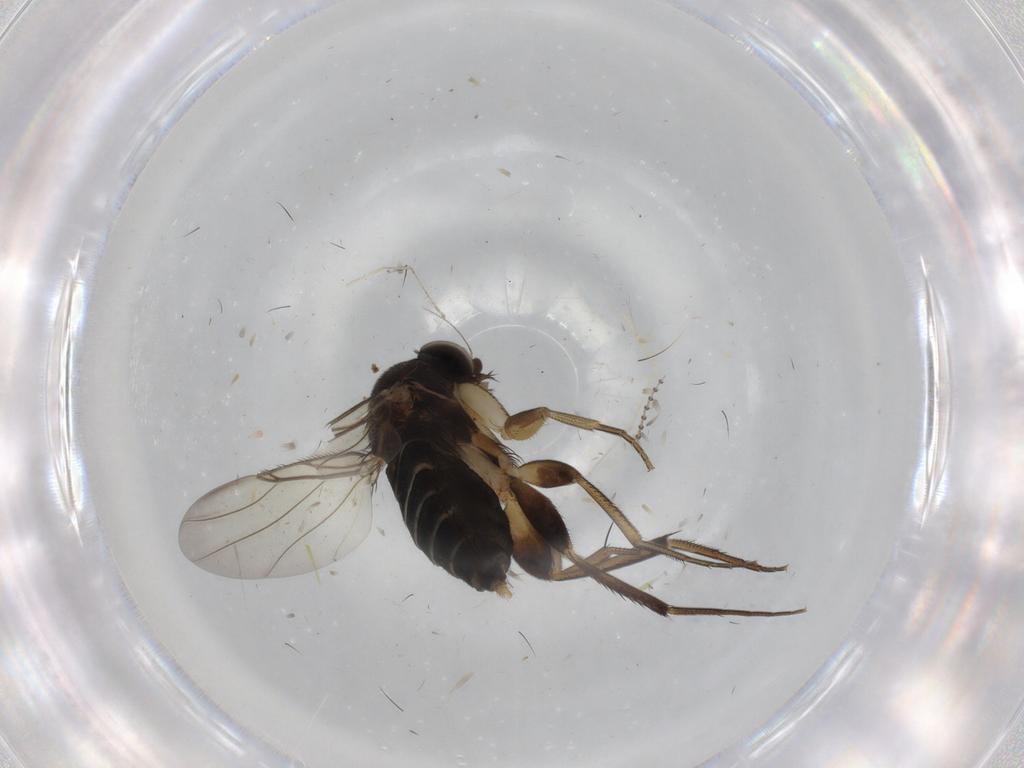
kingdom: Animalia
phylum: Arthropoda
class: Insecta
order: Diptera
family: Phoridae
